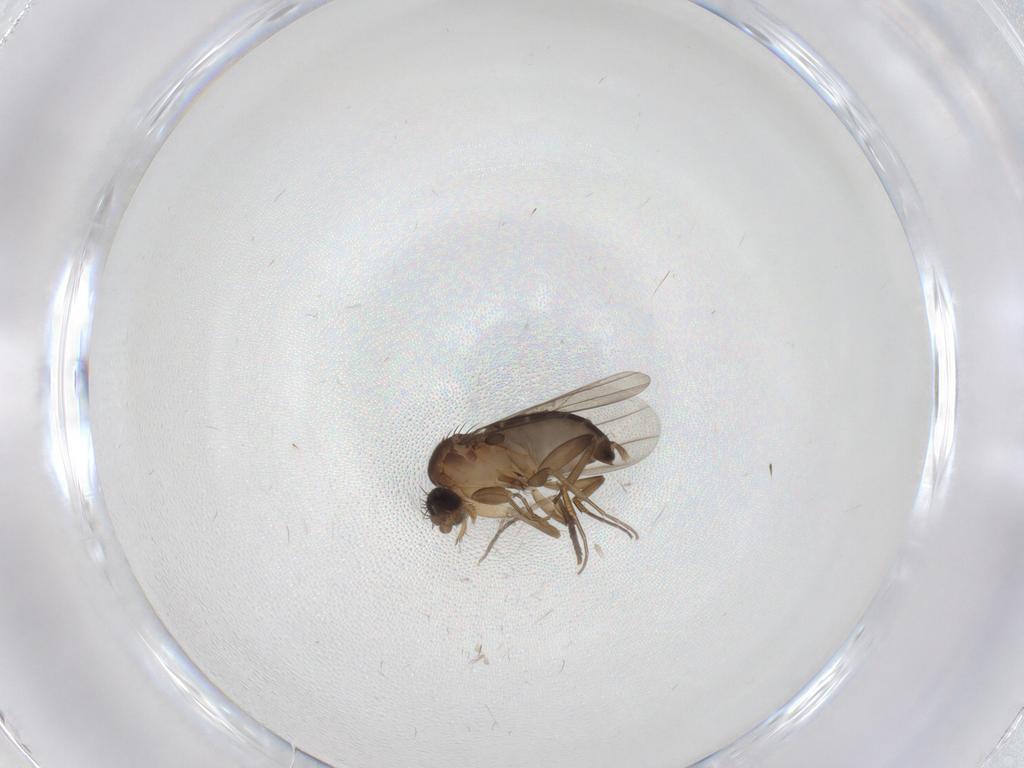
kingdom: Animalia
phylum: Arthropoda
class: Insecta
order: Diptera
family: Phoridae
